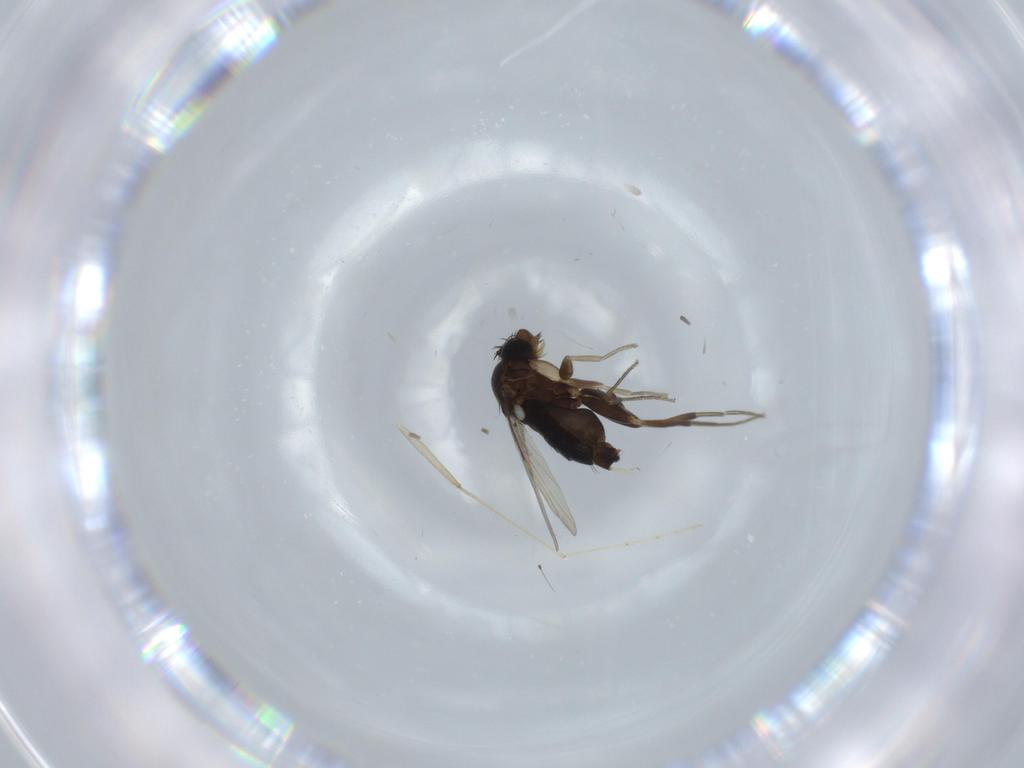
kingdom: Animalia
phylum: Arthropoda
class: Insecta
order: Diptera
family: Phoridae
